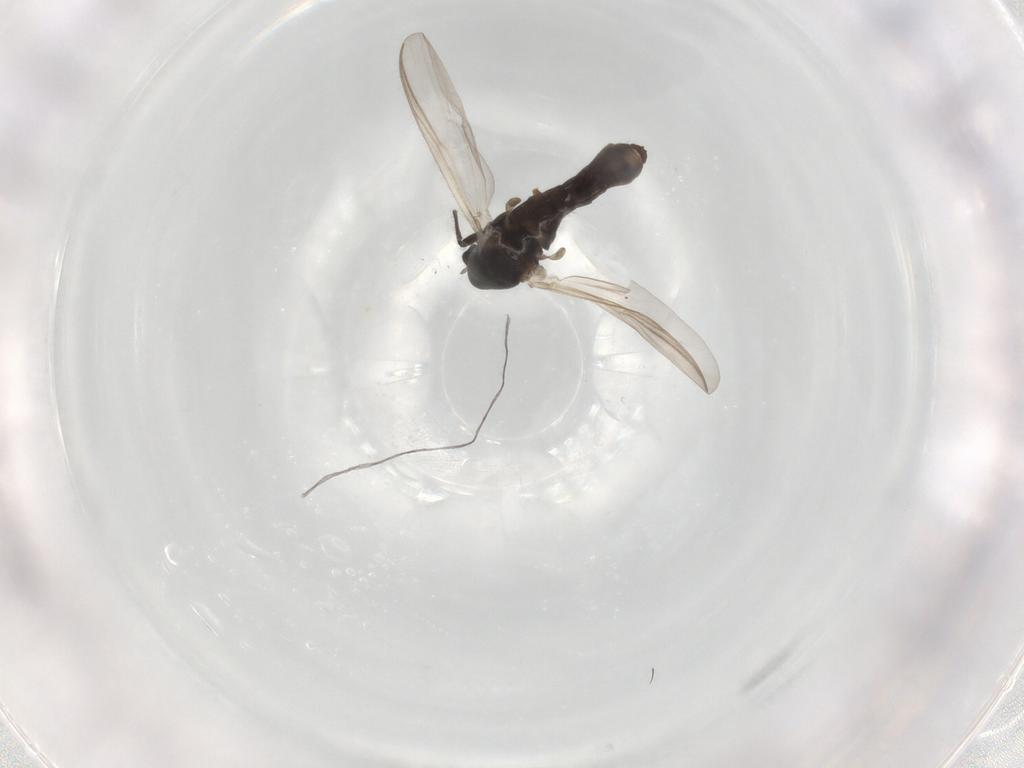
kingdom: Animalia
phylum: Arthropoda
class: Insecta
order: Diptera
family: Chironomidae
